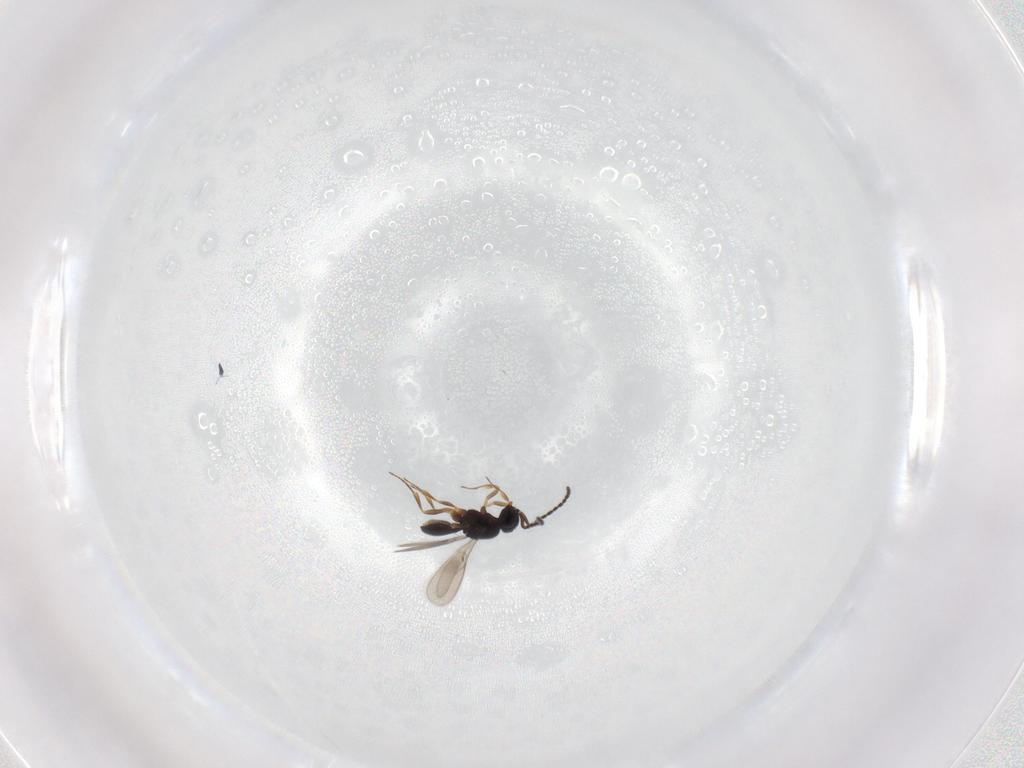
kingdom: Animalia
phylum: Arthropoda
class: Insecta
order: Hymenoptera
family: Scelionidae
